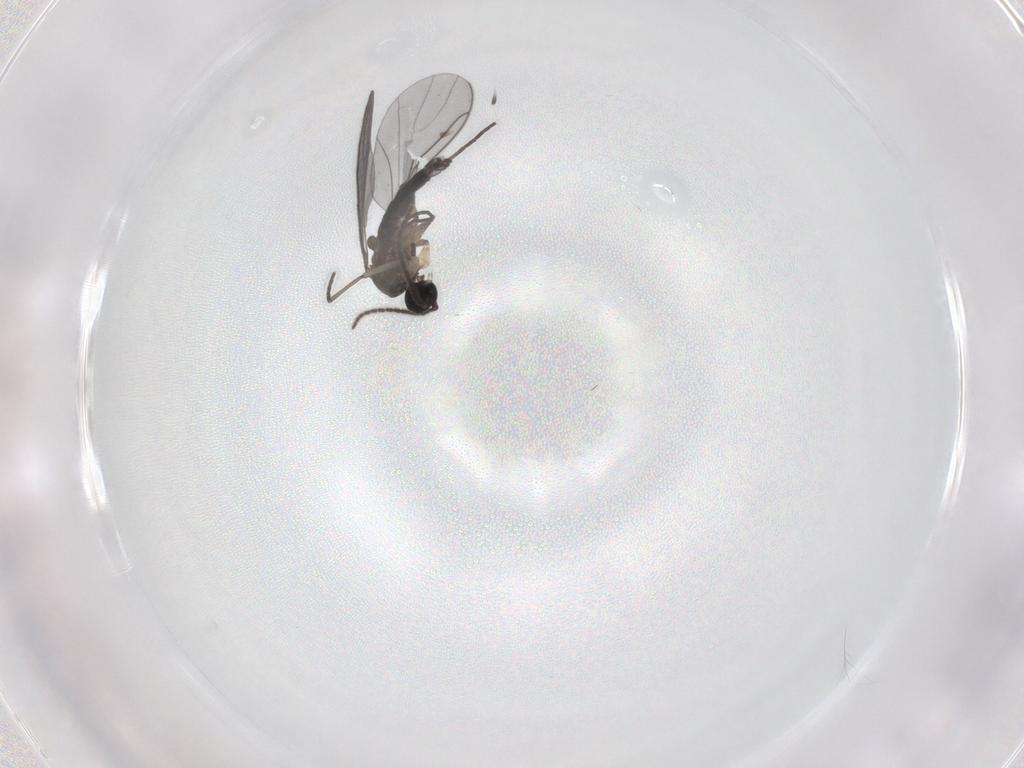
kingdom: Animalia
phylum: Arthropoda
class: Insecta
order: Diptera
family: Sciaridae
